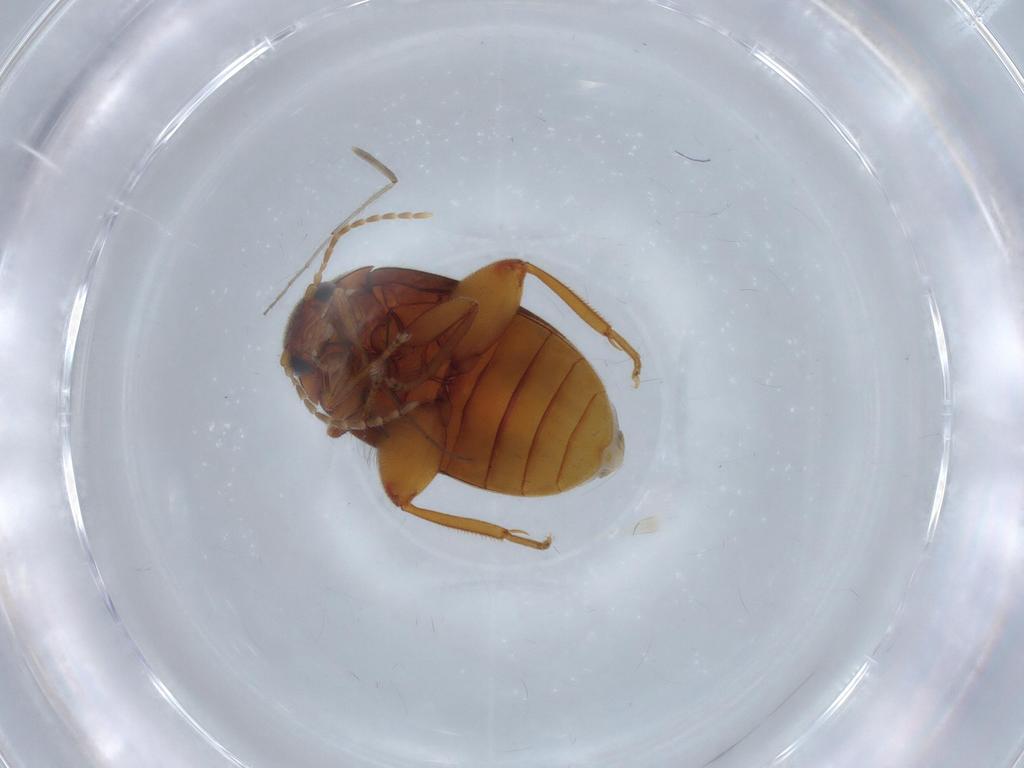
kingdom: Animalia
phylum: Arthropoda
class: Insecta
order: Coleoptera
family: Scirtidae
